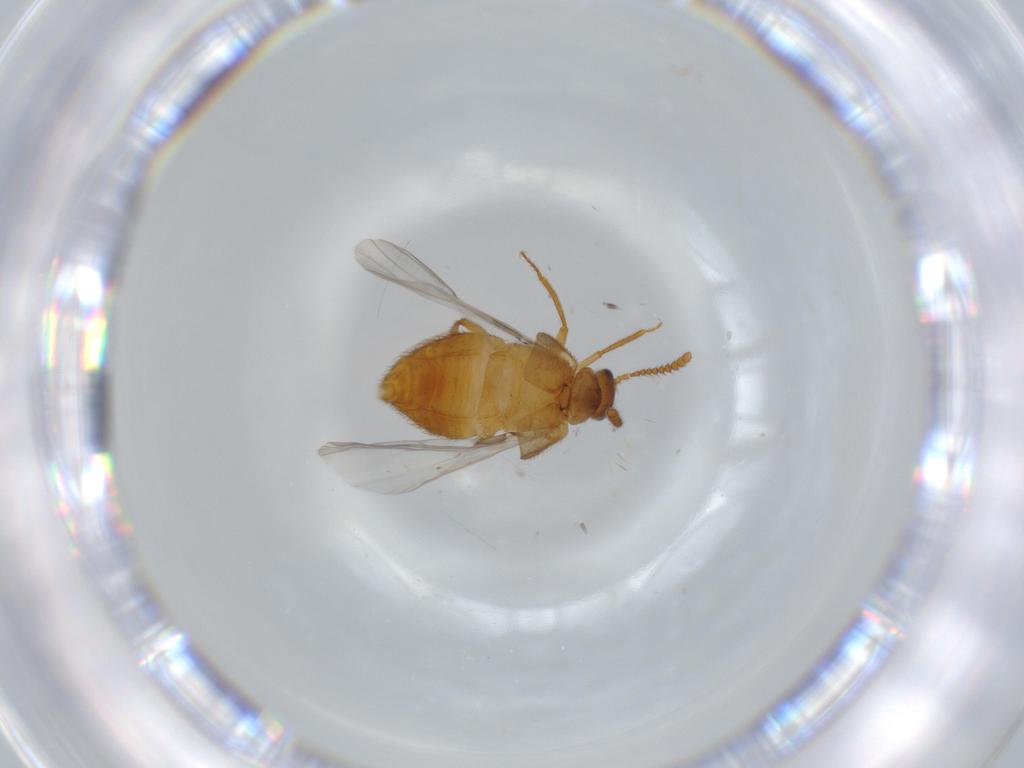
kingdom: Animalia
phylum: Arthropoda
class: Insecta
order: Coleoptera
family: Staphylinidae
